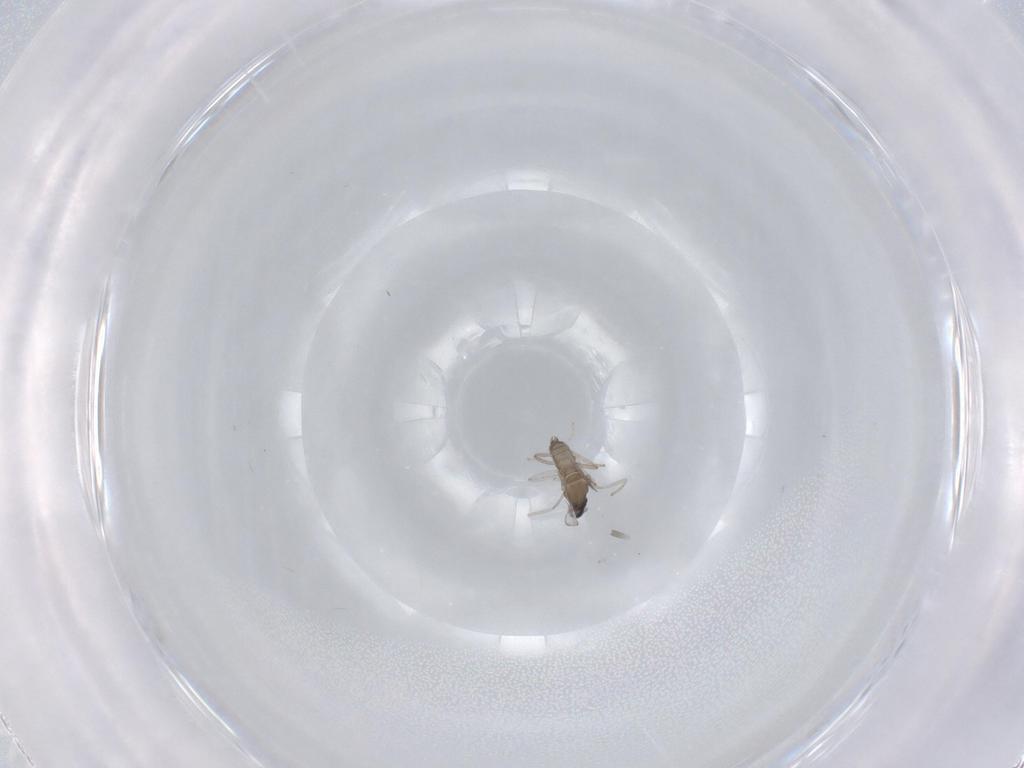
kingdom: Animalia
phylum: Arthropoda
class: Insecta
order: Diptera
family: Cecidomyiidae
